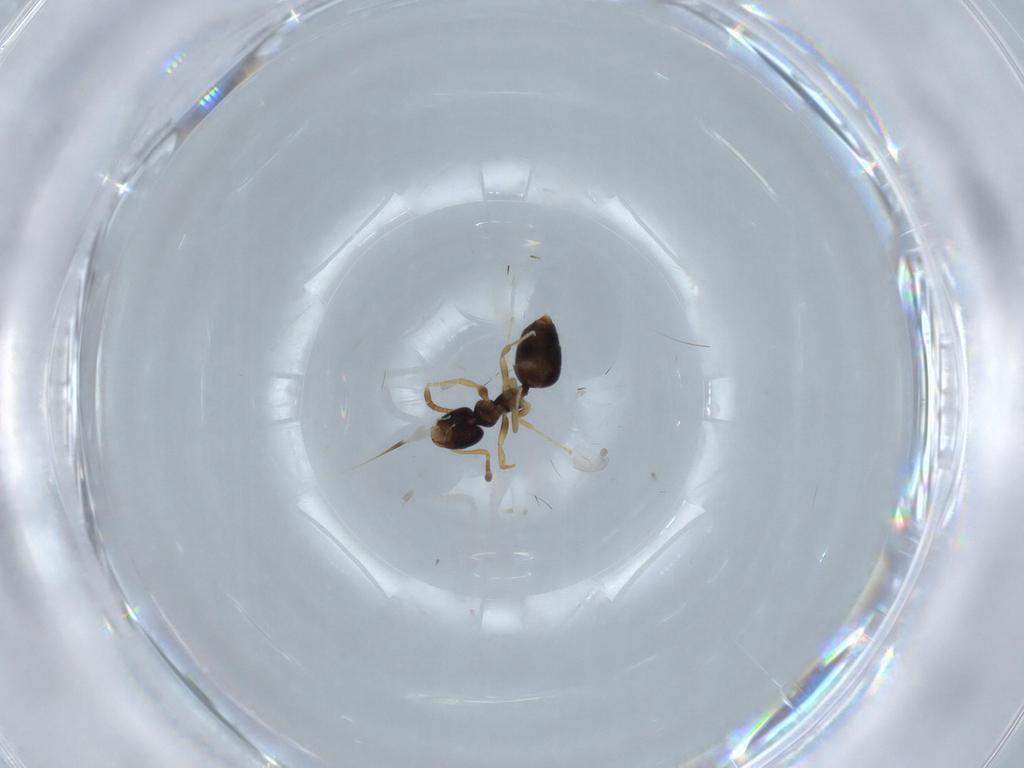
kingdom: Animalia
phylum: Arthropoda
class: Insecta
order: Hymenoptera
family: Formicidae
